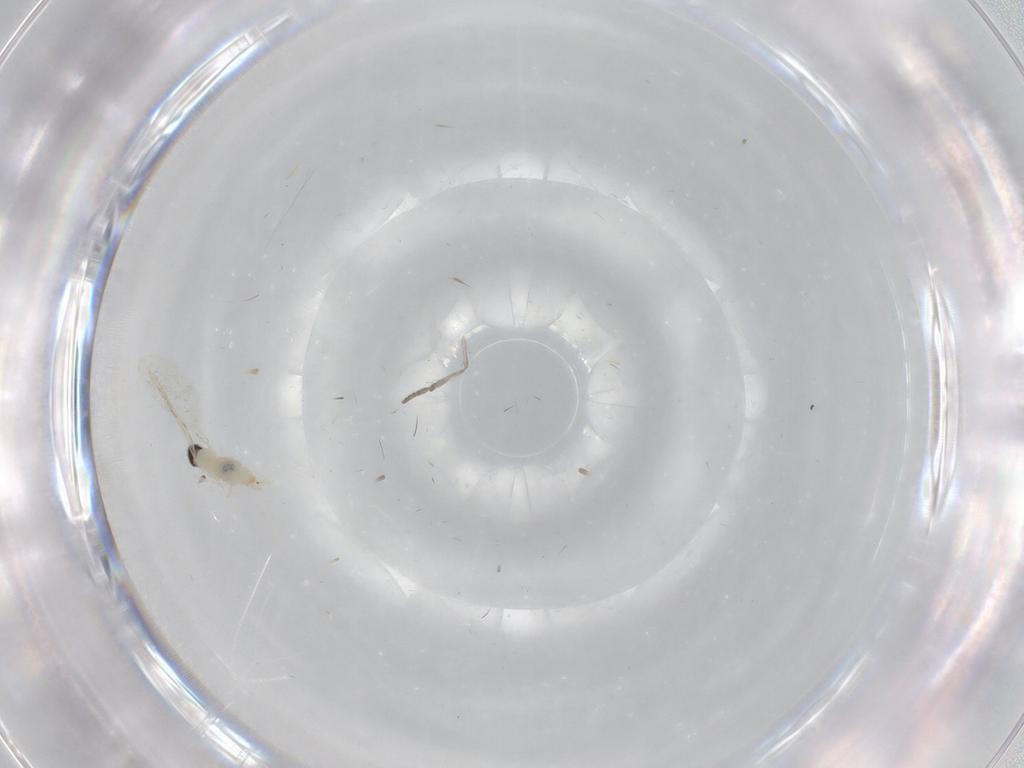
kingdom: Animalia
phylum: Arthropoda
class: Insecta
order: Diptera
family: Cecidomyiidae
